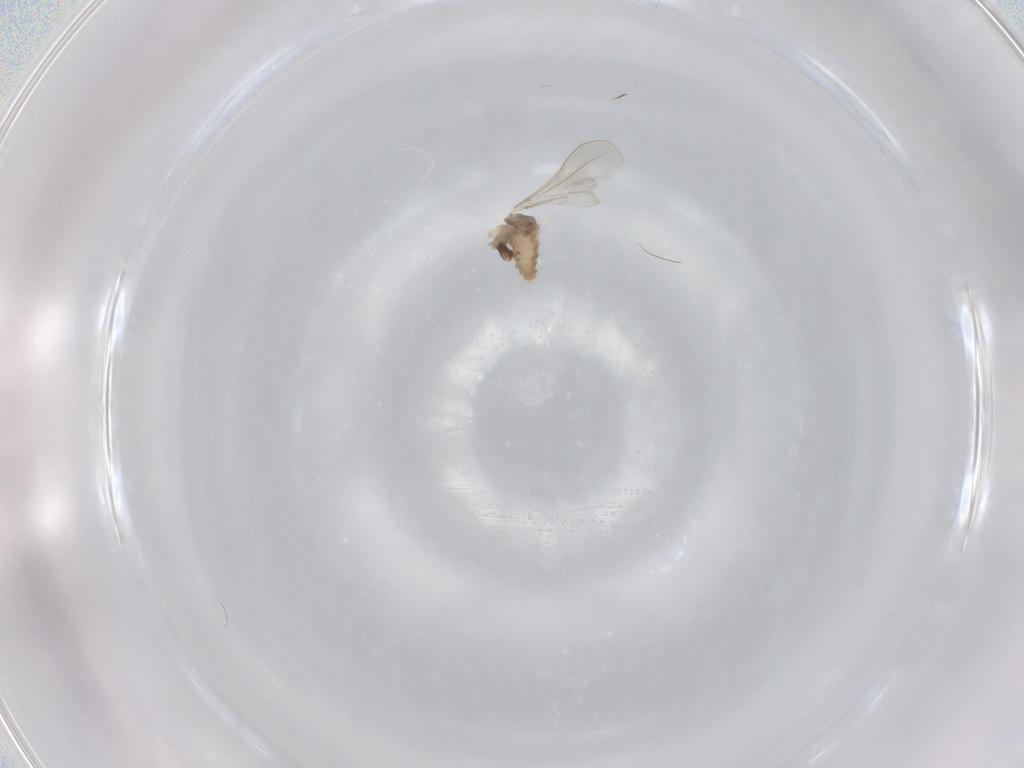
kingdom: Animalia
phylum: Arthropoda
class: Insecta
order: Diptera
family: Cecidomyiidae
